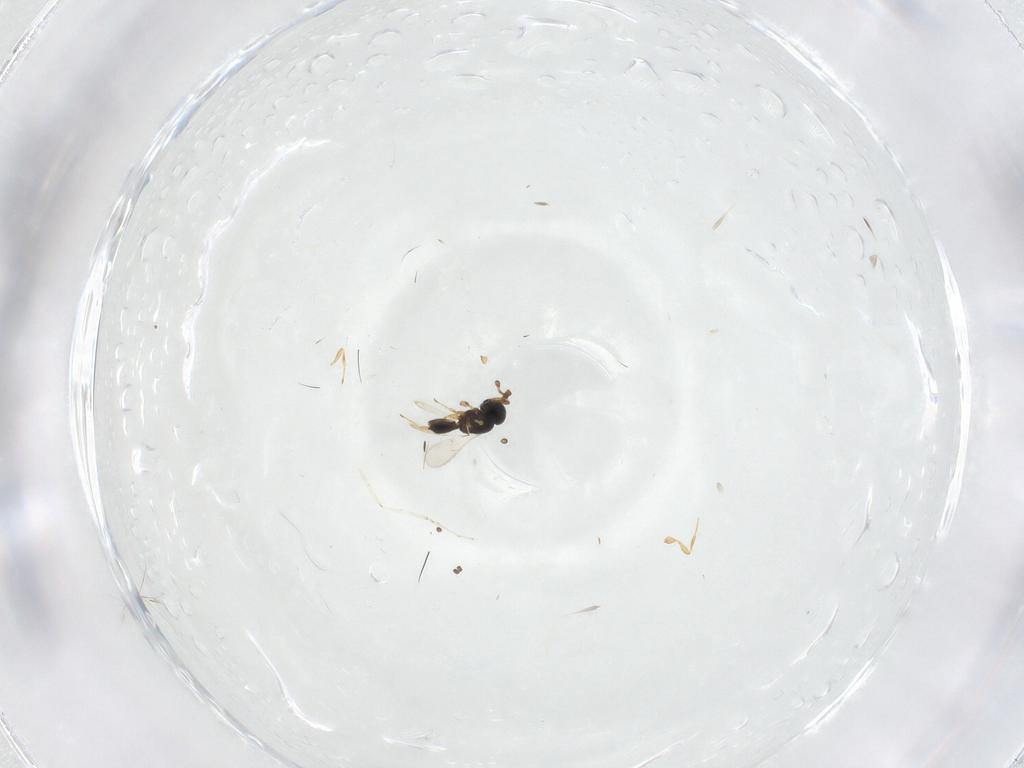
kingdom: Animalia
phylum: Arthropoda
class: Insecta
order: Hymenoptera
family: Scelionidae
